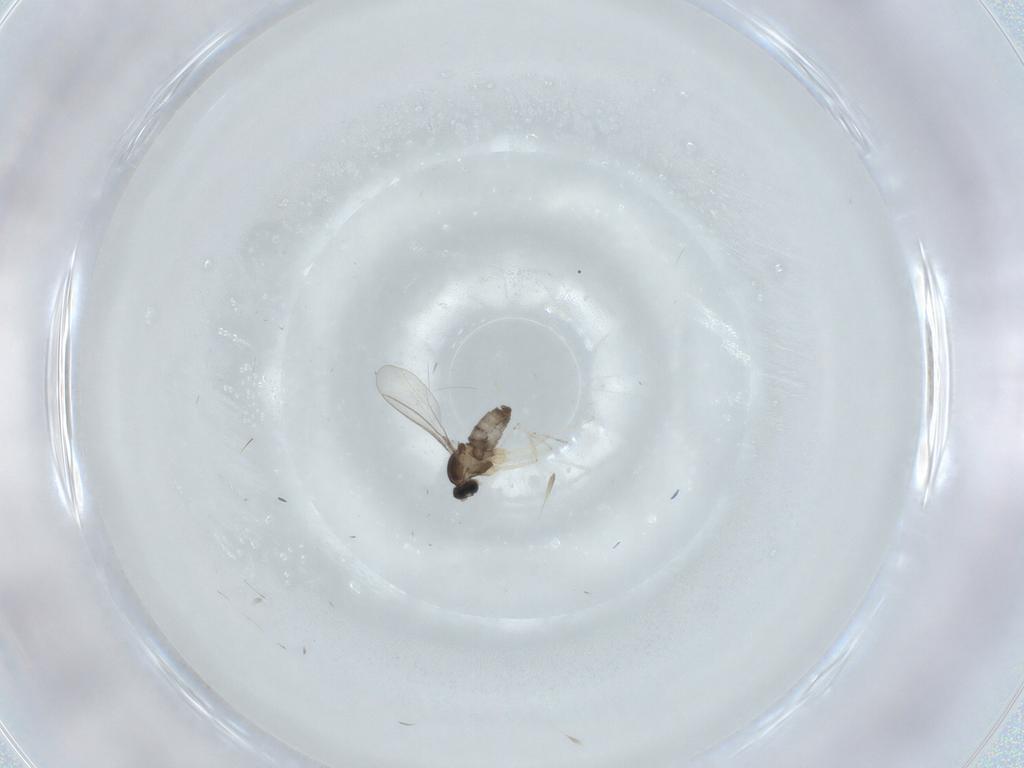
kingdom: Animalia
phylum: Arthropoda
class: Insecta
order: Diptera
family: Cecidomyiidae
